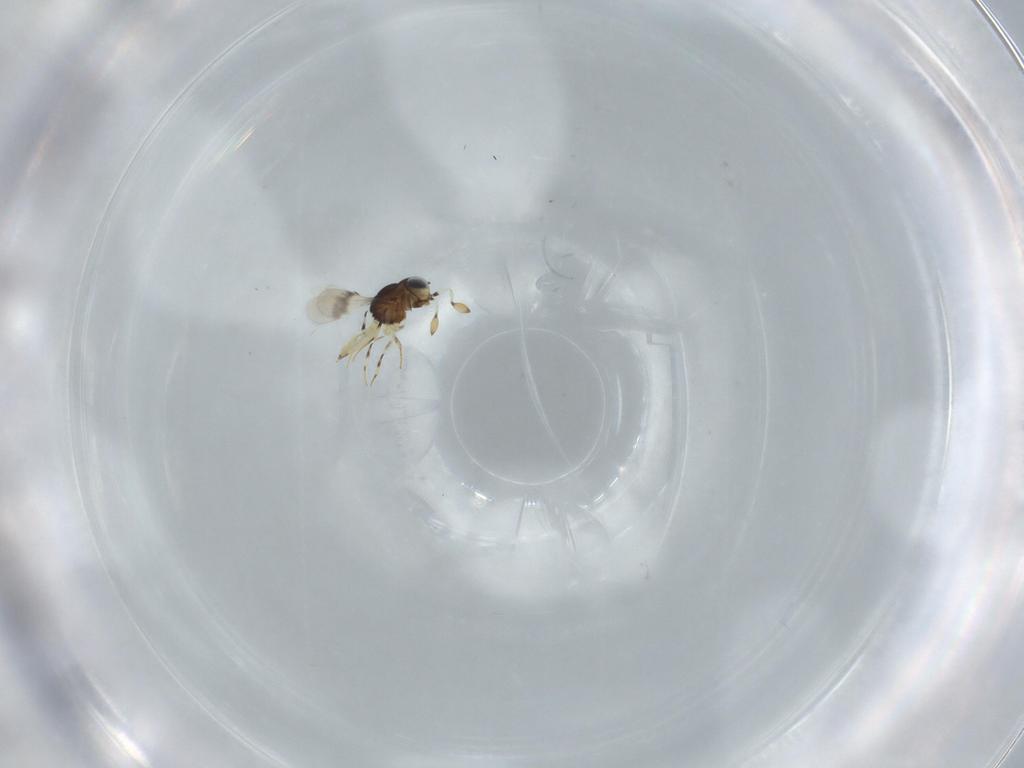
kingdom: Animalia
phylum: Arthropoda
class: Insecta
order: Hymenoptera
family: Scelionidae
